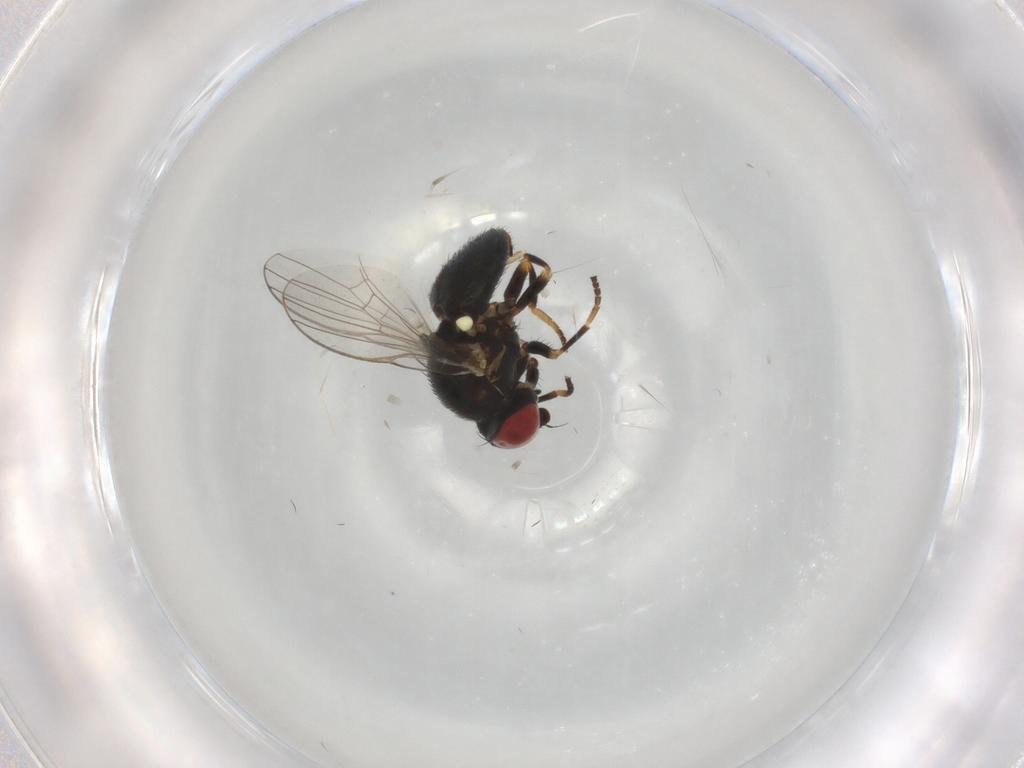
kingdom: Animalia
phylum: Arthropoda
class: Insecta
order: Diptera
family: Chamaemyiidae
